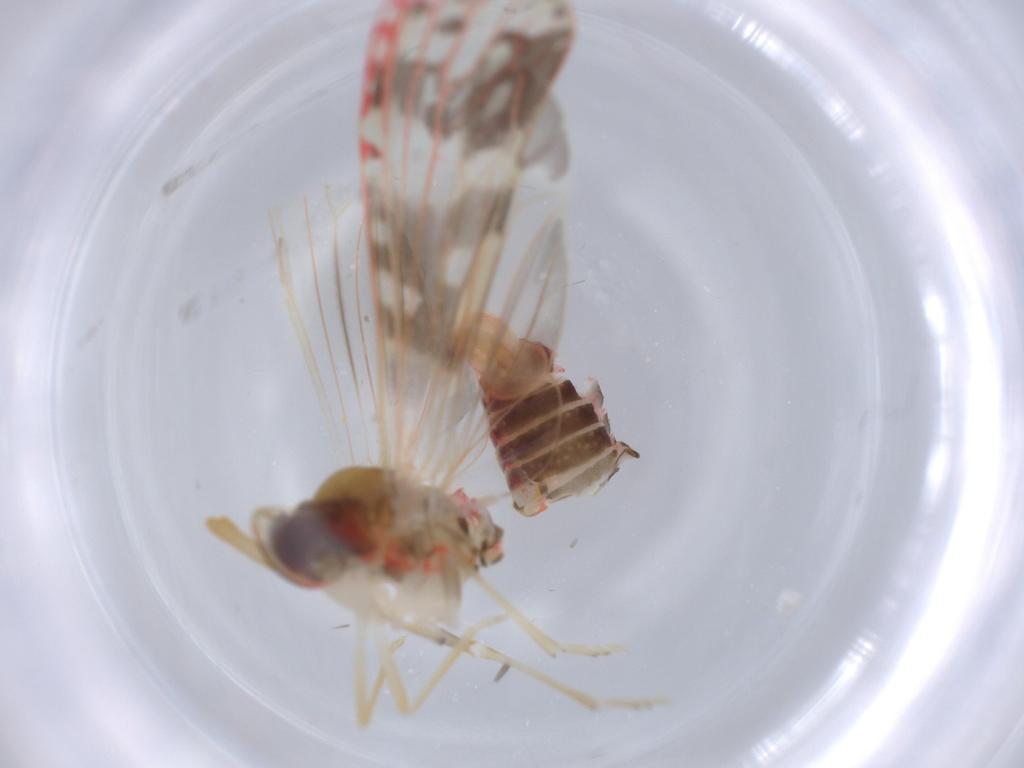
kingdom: Animalia
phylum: Arthropoda
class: Insecta
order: Hemiptera
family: Derbidae
